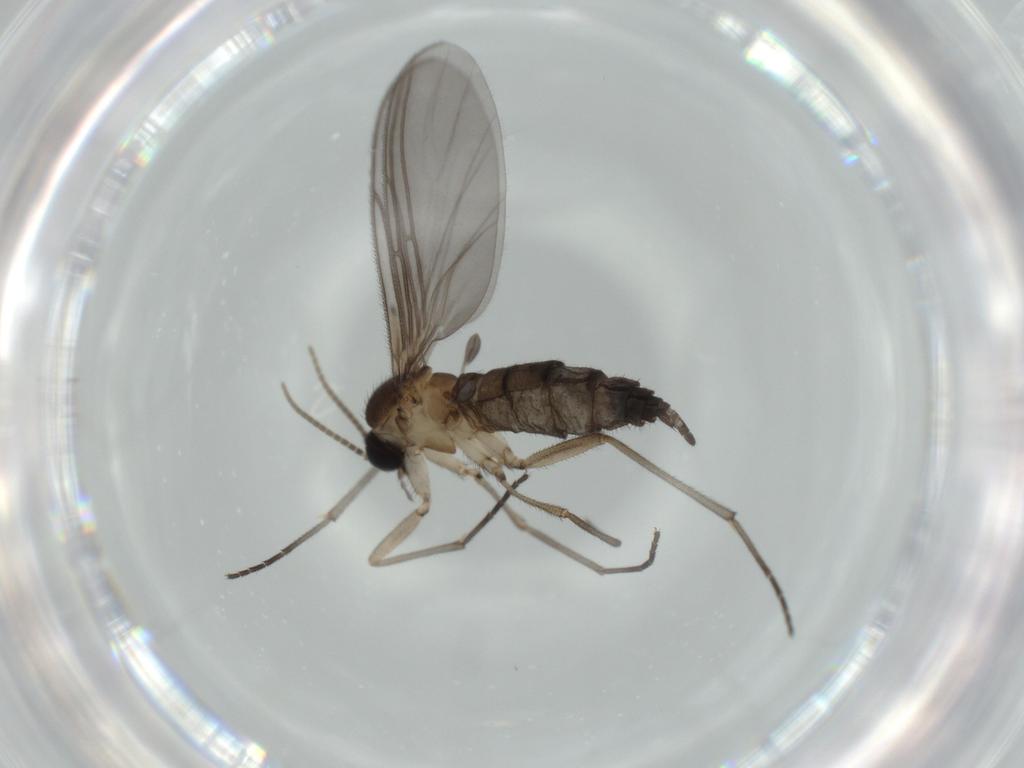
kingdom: Animalia
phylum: Arthropoda
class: Insecta
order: Diptera
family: Sciaridae
